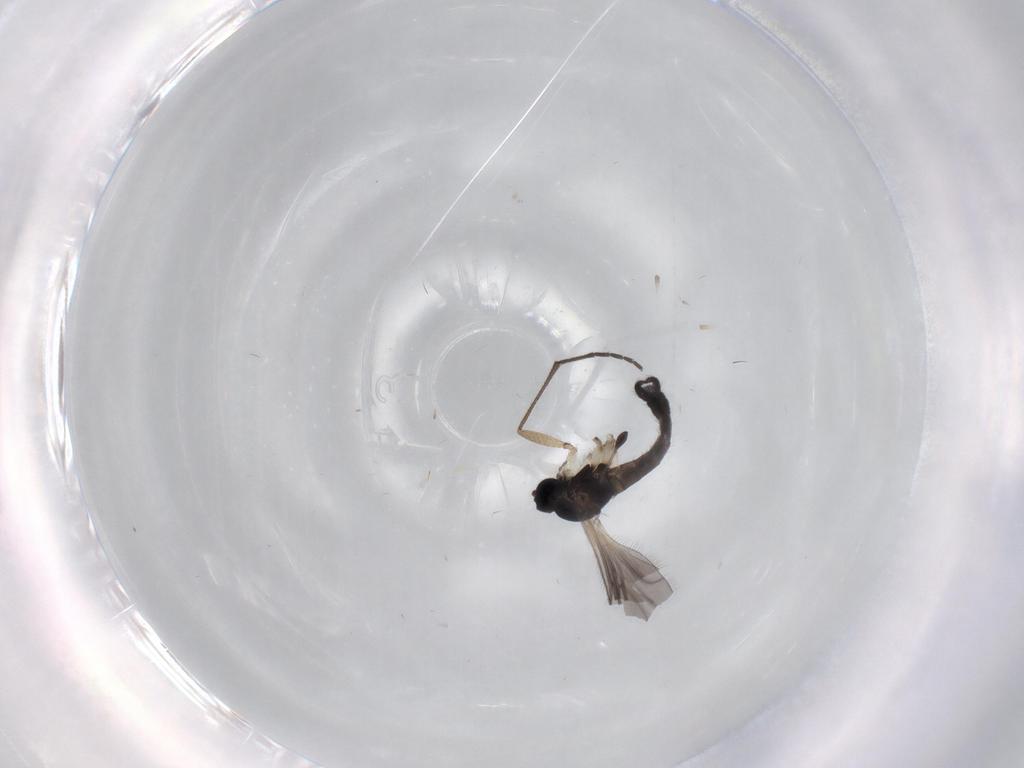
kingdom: Animalia
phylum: Arthropoda
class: Insecta
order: Diptera
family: Sciaridae
